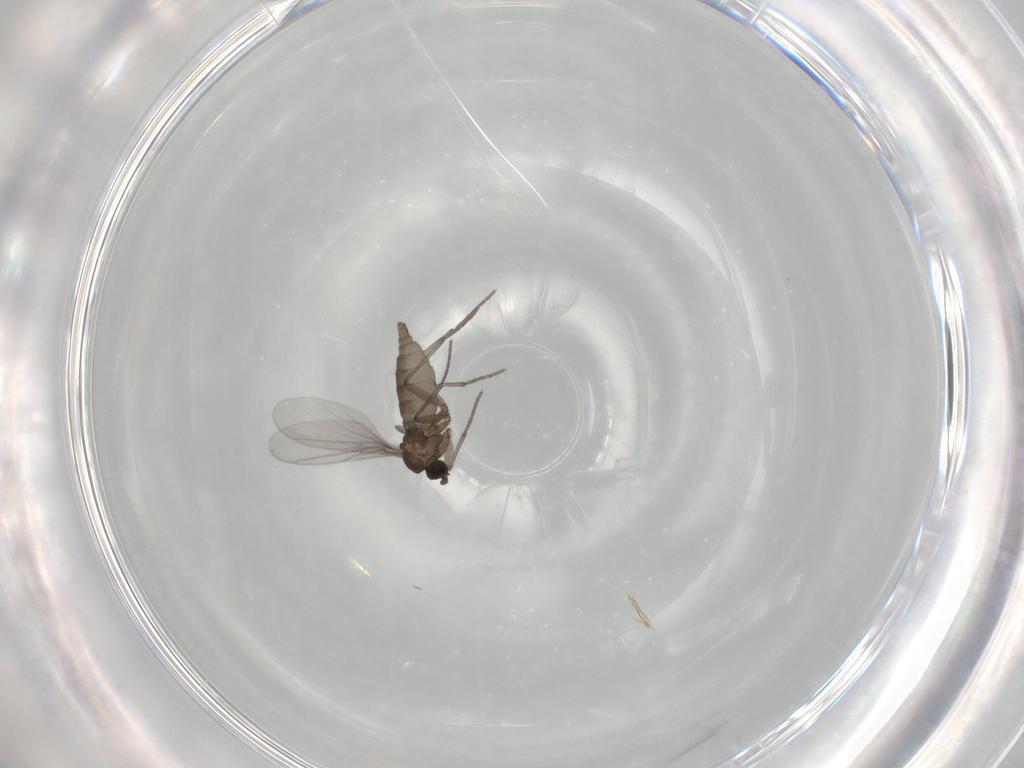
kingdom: Animalia
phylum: Arthropoda
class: Insecta
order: Diptera
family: Sciaridae
